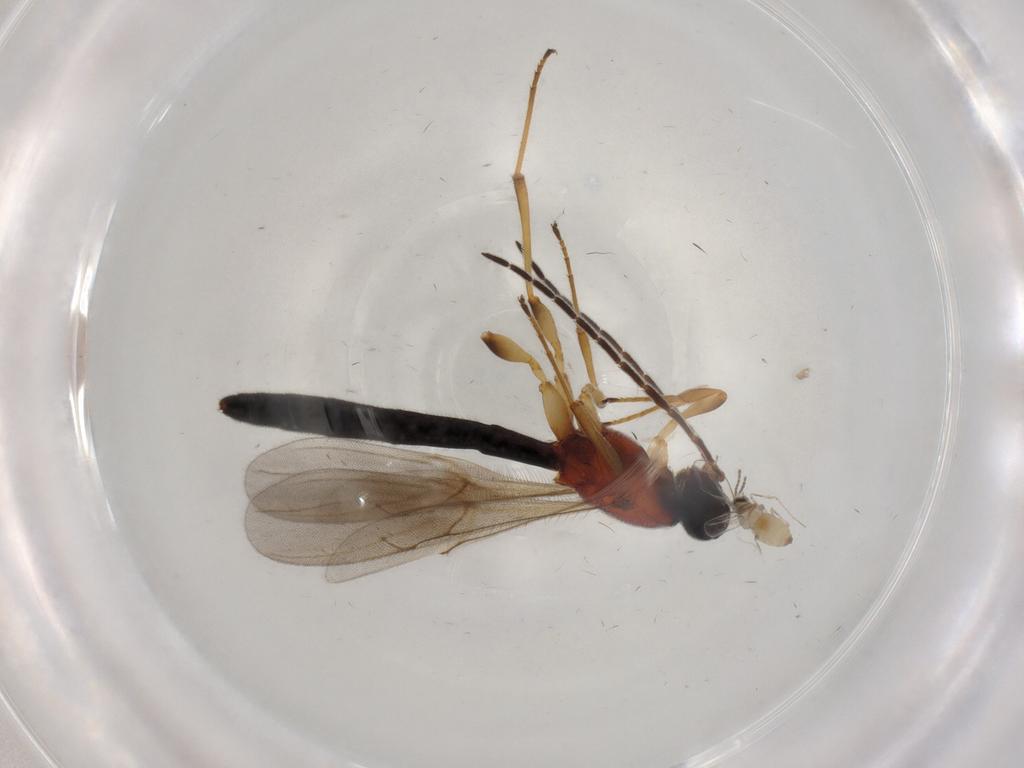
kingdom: Animalia
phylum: Arthropoda
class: Insecta
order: Hymenoptera
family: Scelionidae
